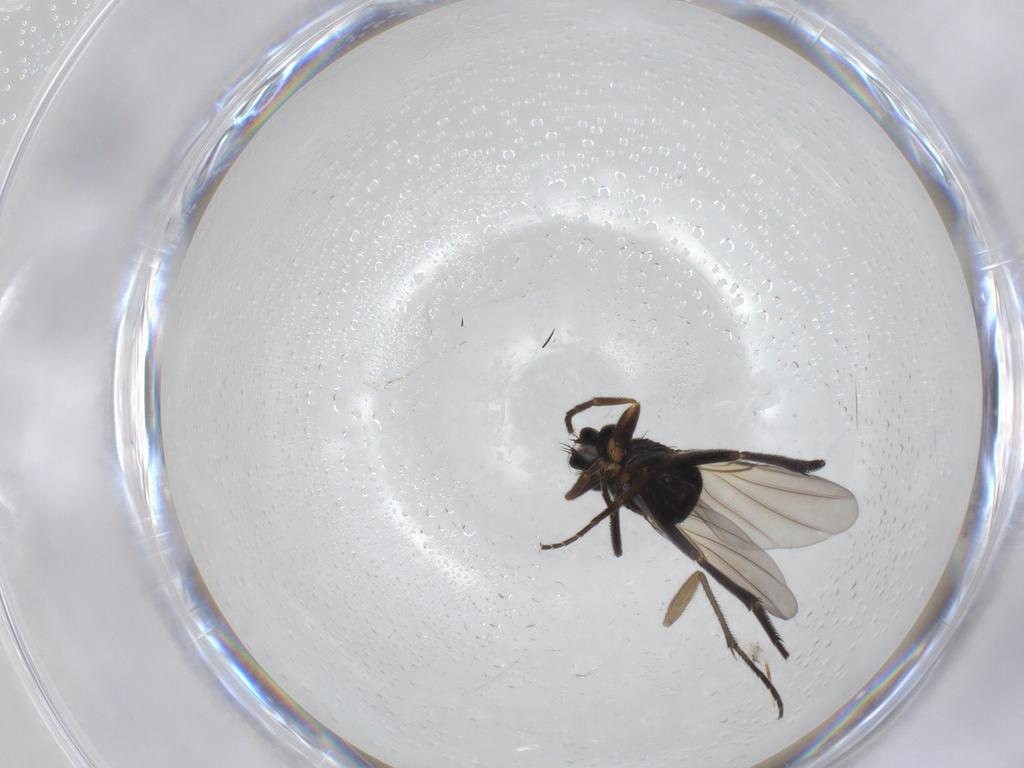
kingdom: Animalia
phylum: Arthropoda
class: Insecta
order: Diptera
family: Phoridae
